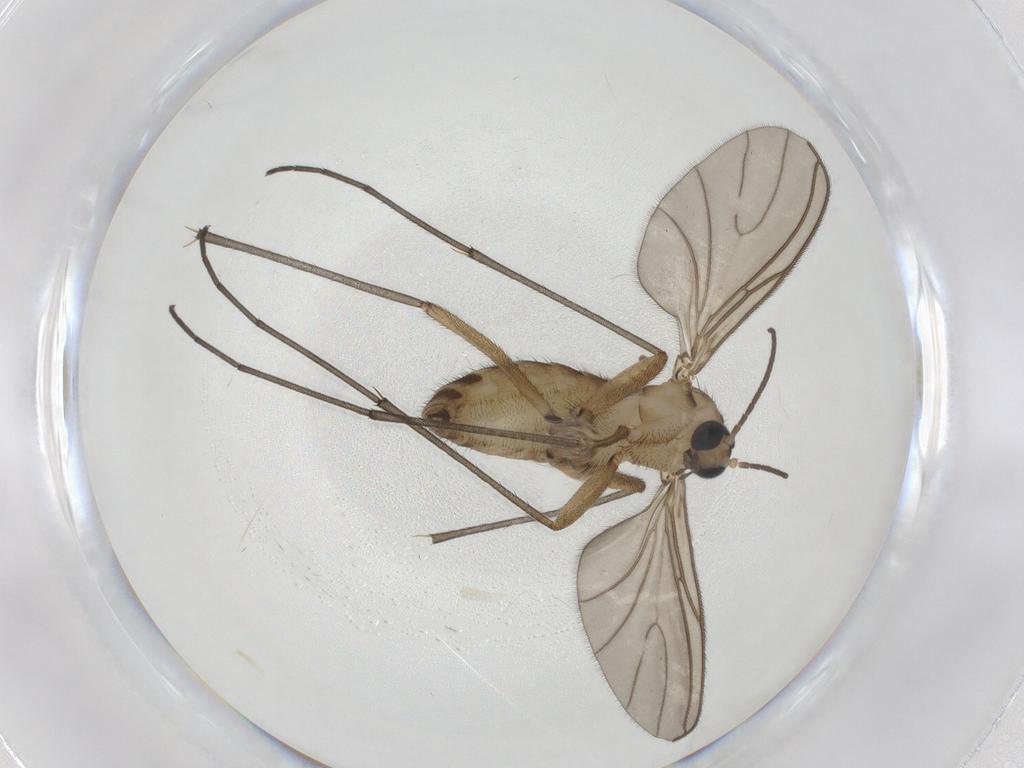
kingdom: Animalia
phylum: Arthropoda
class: Insecta
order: Diptera
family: Sciaridae
